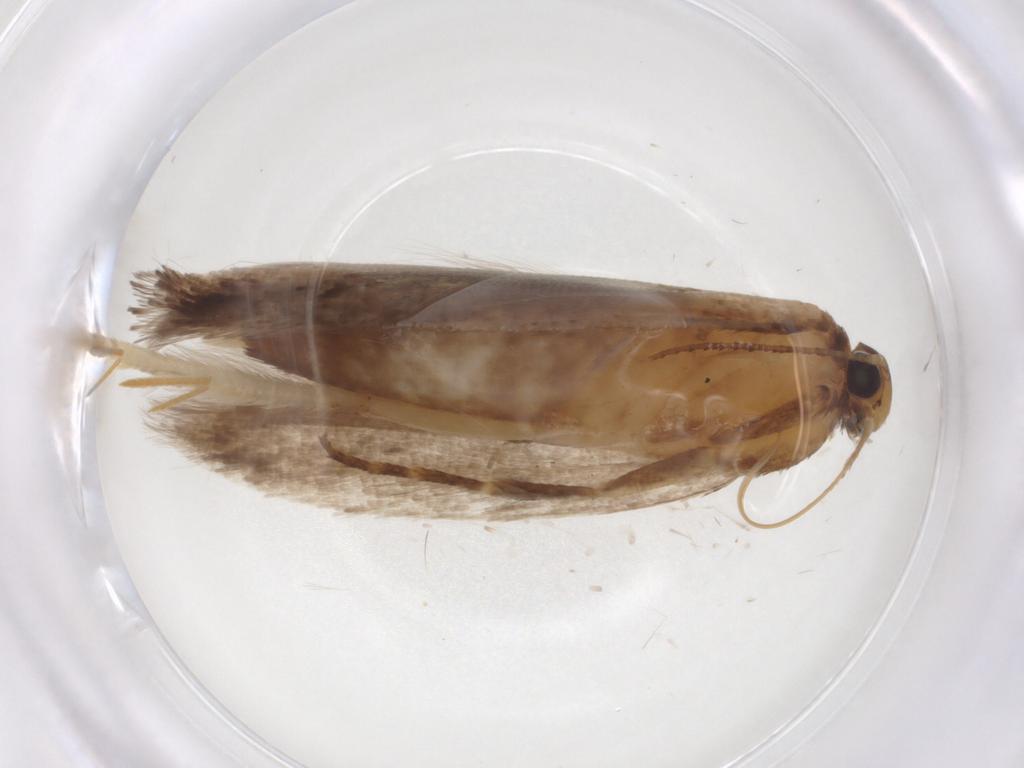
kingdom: Animalia
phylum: Arthropoda
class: Insecta
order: Lepidoptera
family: Gelechiidae
